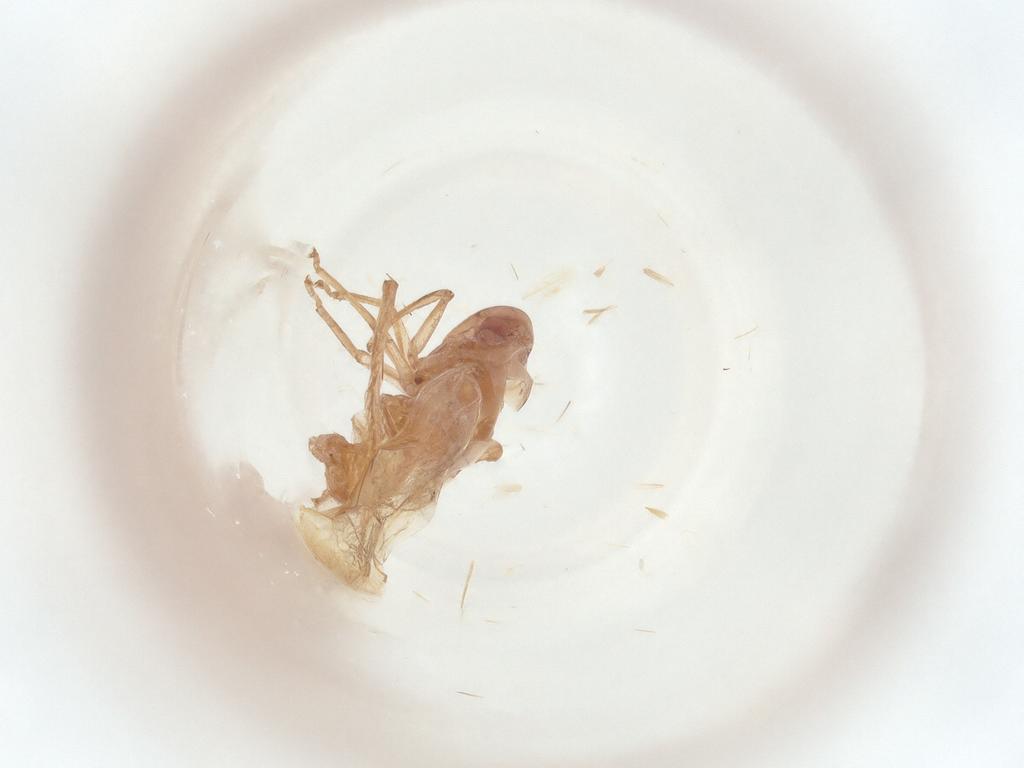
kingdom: Animalia
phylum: Arthropoda
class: Insecta
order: Hemiptera
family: Cicadellidae
